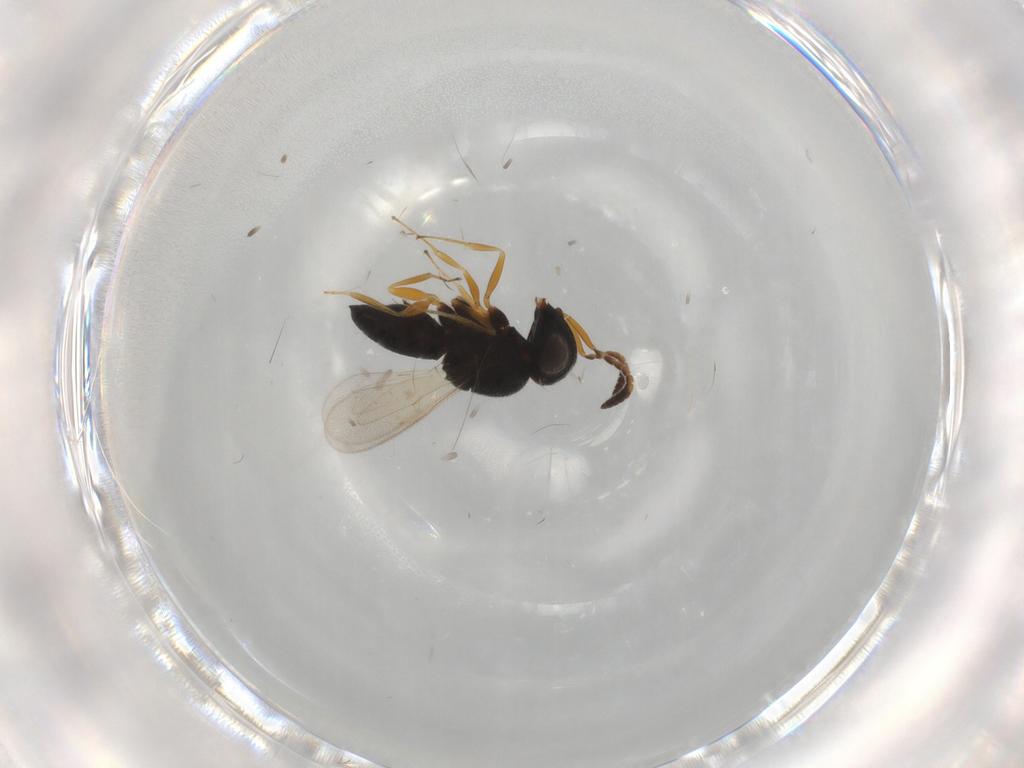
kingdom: Animalia
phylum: Arthropoda
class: Insecta
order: Hymenoptera
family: Scelionidae
